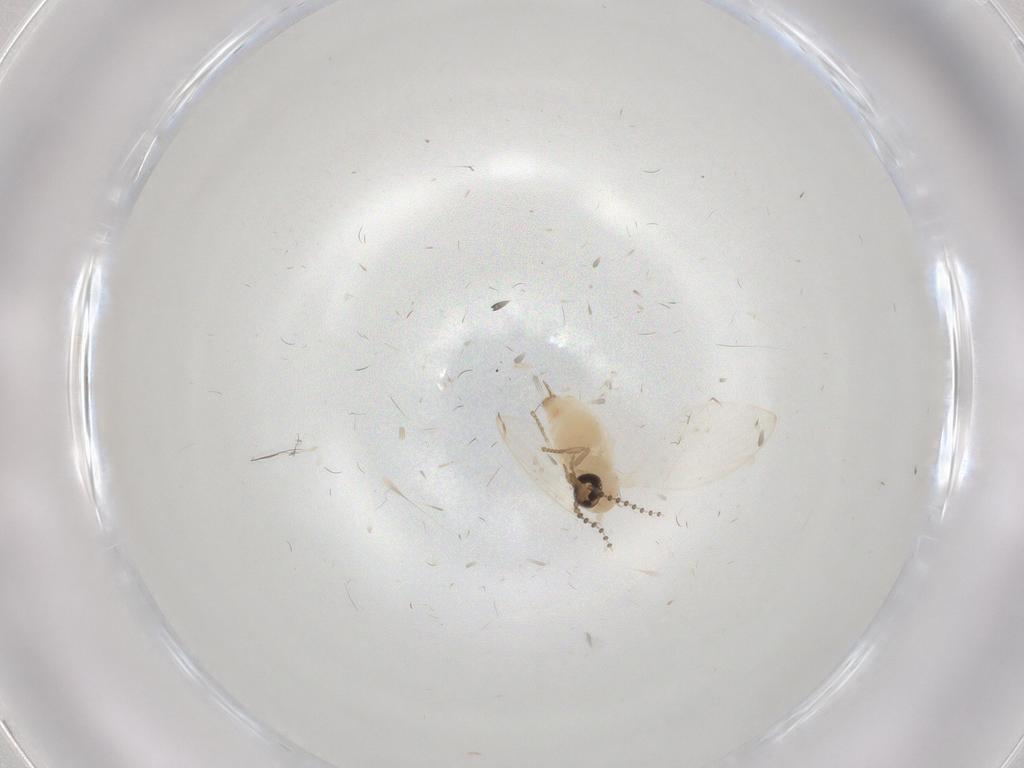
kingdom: Animalia
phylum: Arthropoda
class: Insecta
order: Diptera
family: Psychodidae
